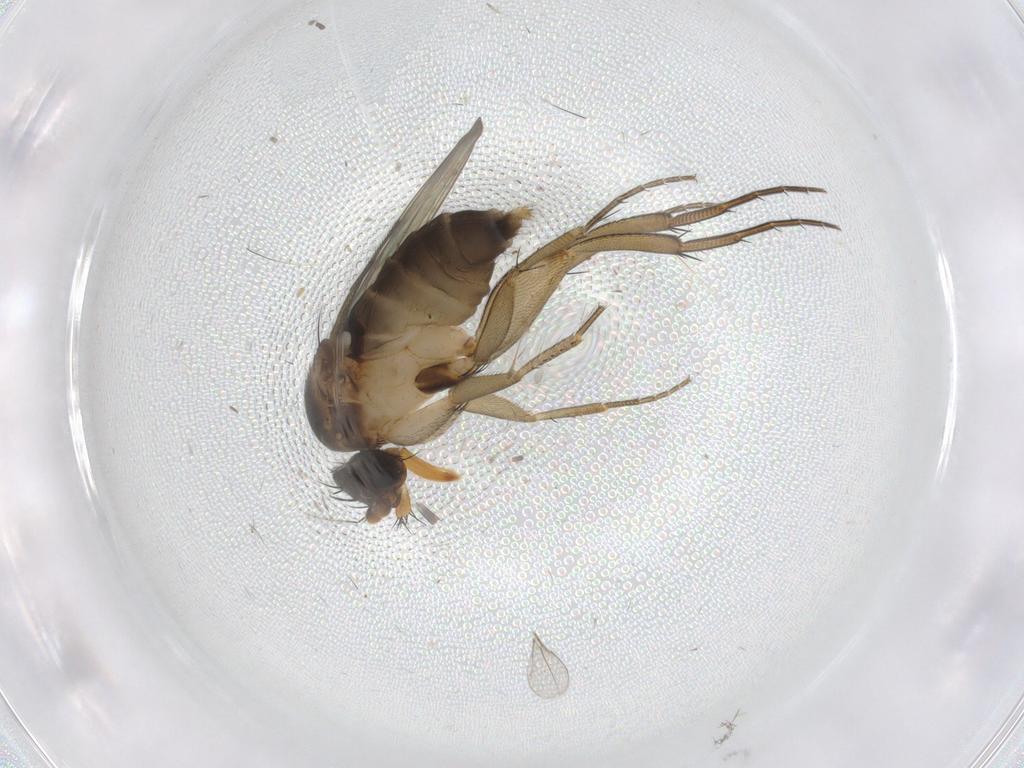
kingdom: Animalia
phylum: Arthropoda
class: Insecta
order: Diptera
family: Phoridae
